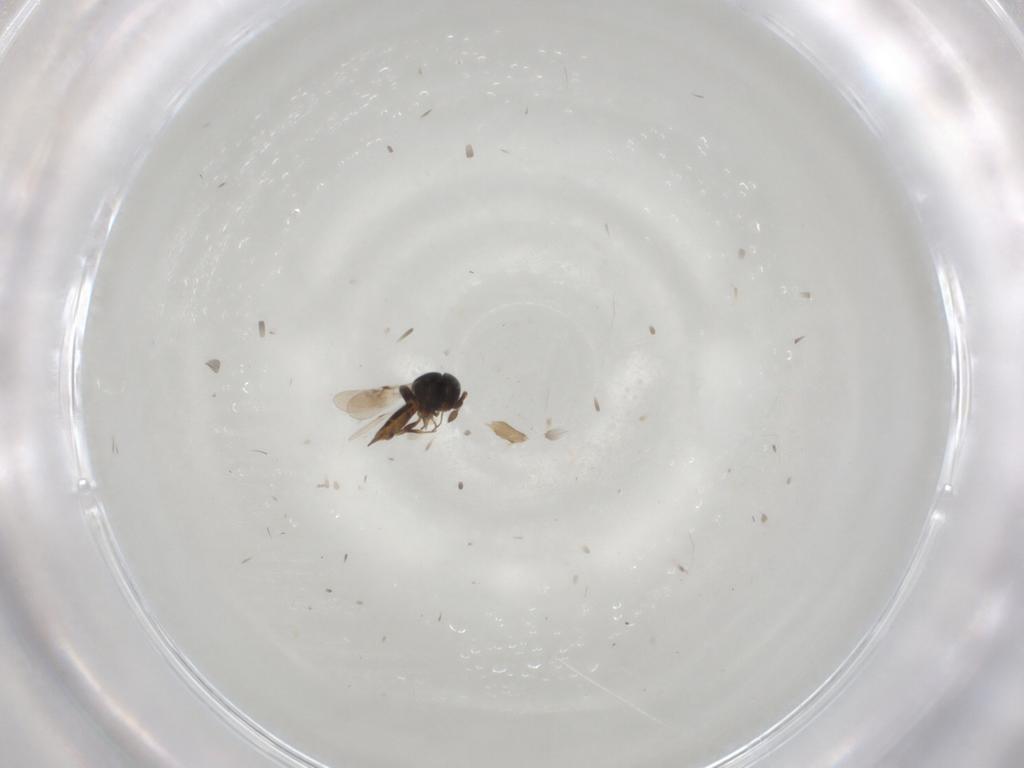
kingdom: Animalia
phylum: Arthropoda
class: Insecta
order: Hymenoptera
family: Scelionidae
